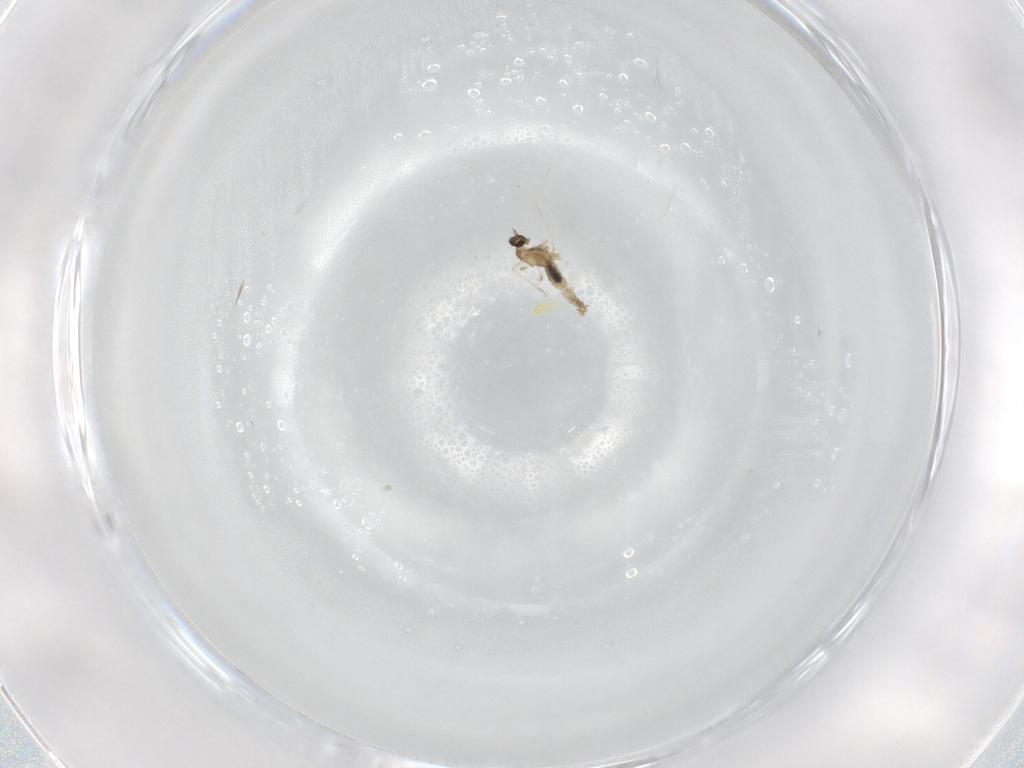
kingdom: Animalia
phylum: Arthropoda
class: Insecta
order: Diptera
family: Cecidomyiidae
